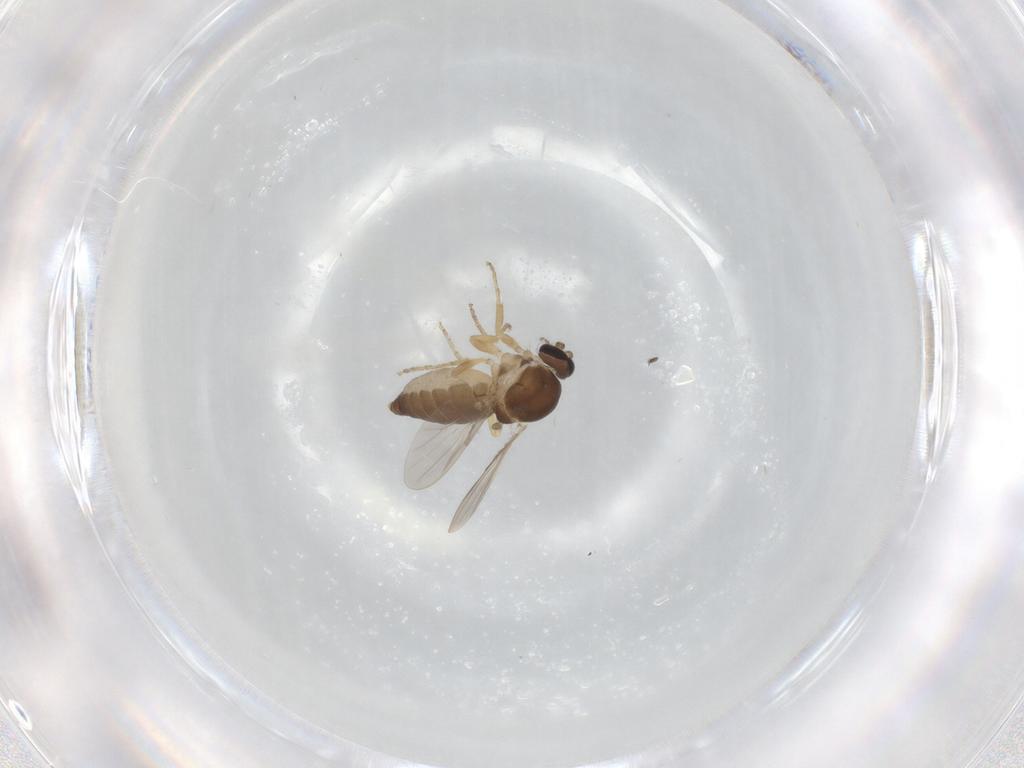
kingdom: Animalia
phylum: Arthropoda
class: Insecta
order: Diptera
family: Ceratopogonidae
